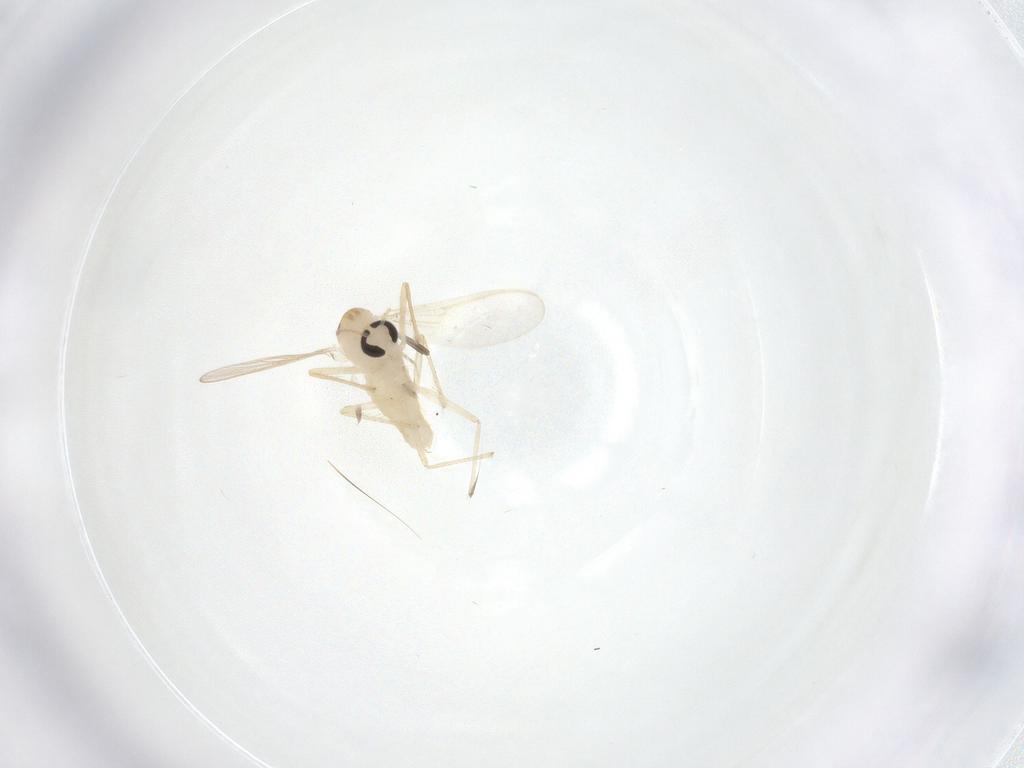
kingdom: Animalia
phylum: Arthropoda
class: Insecta
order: Diptera
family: Chironomidae
